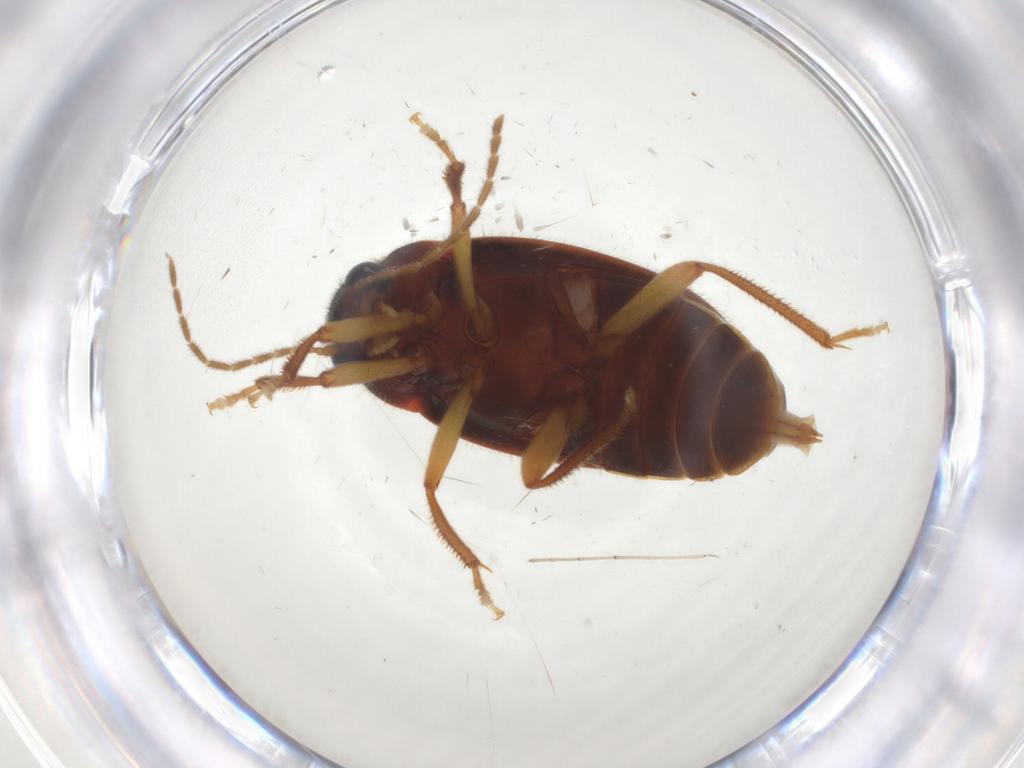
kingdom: Animalia
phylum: Arthropoda
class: Insecta
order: Coleoptera
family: Ptilodactylidae
